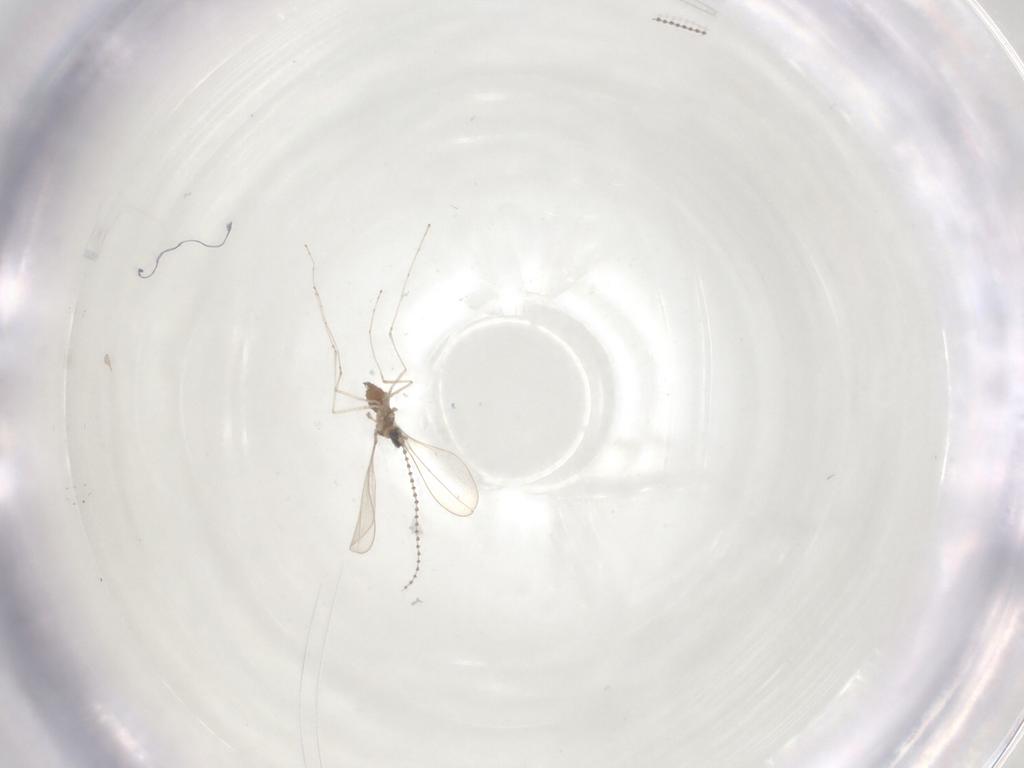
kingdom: Animalia
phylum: Arthropoda
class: Insecta
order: Diptera
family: Cecidomyiidae
